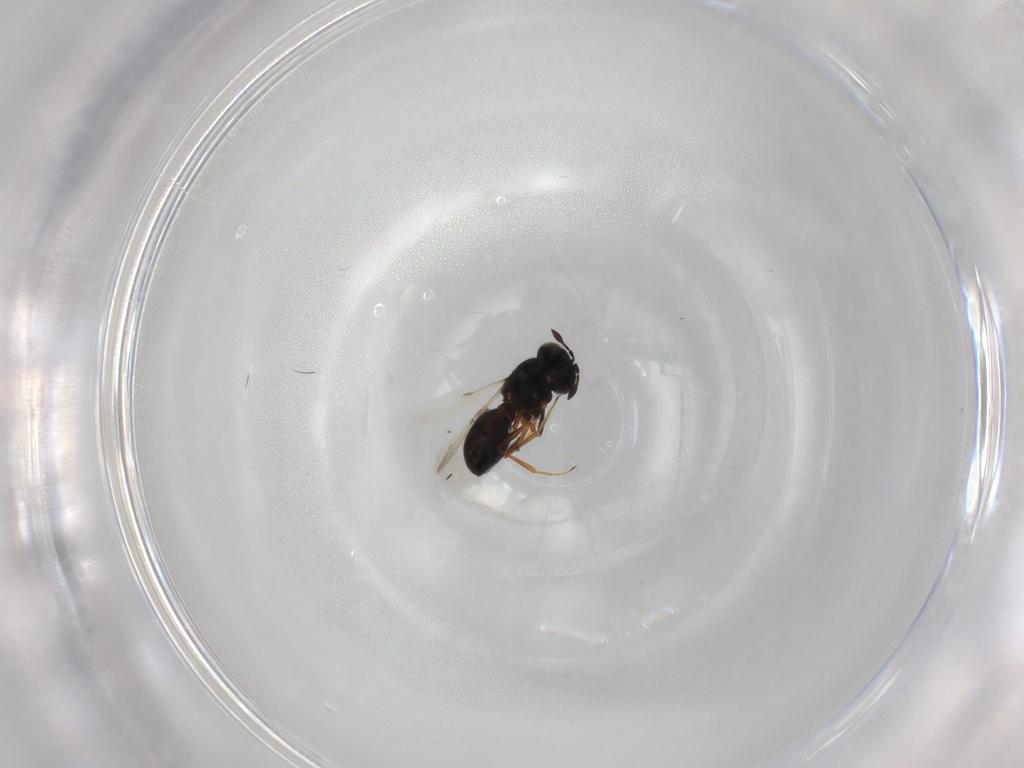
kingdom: Animalia
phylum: Arthropoda
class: Insecta
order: Hymenoptera
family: Scelionidae
